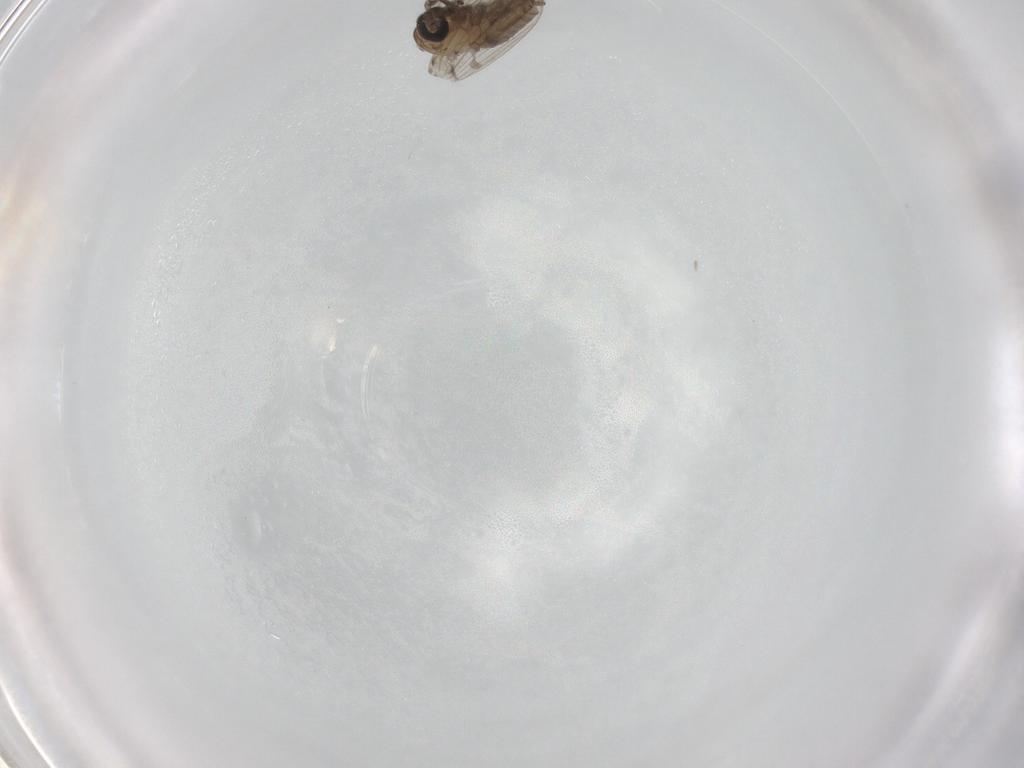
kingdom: Animalia
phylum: Arthropoda
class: Insecta
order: Diptera
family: Psychodidae
